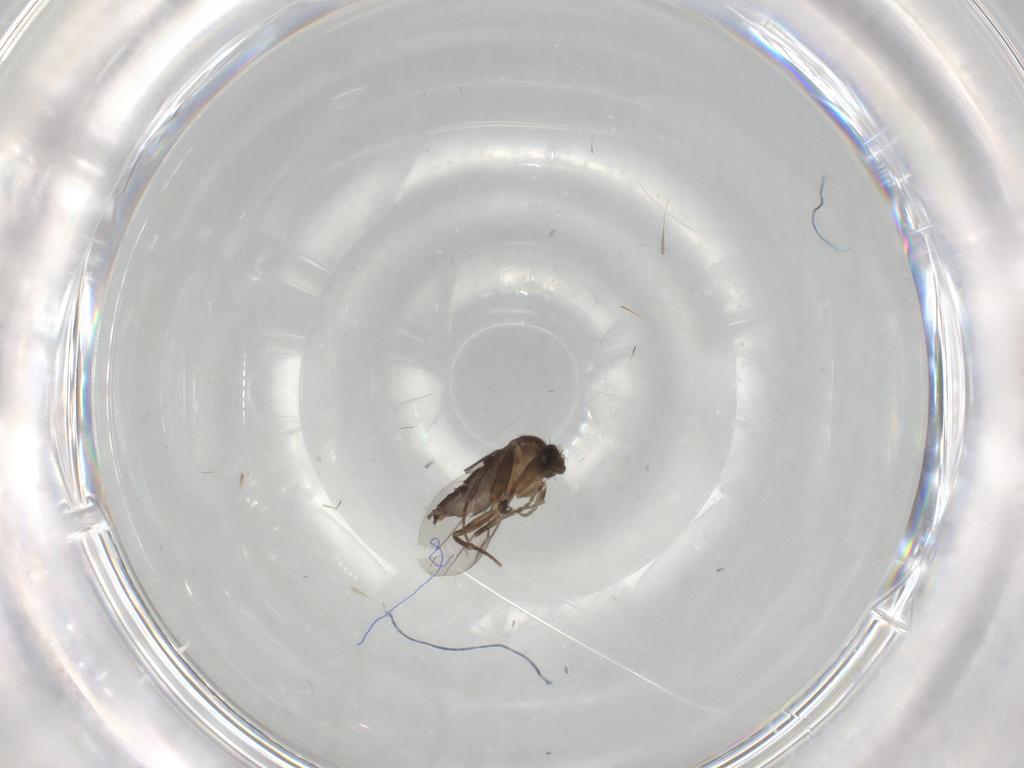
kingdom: Animalia
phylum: Arthropoda
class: Insecta
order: Diptera
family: Phoridae
